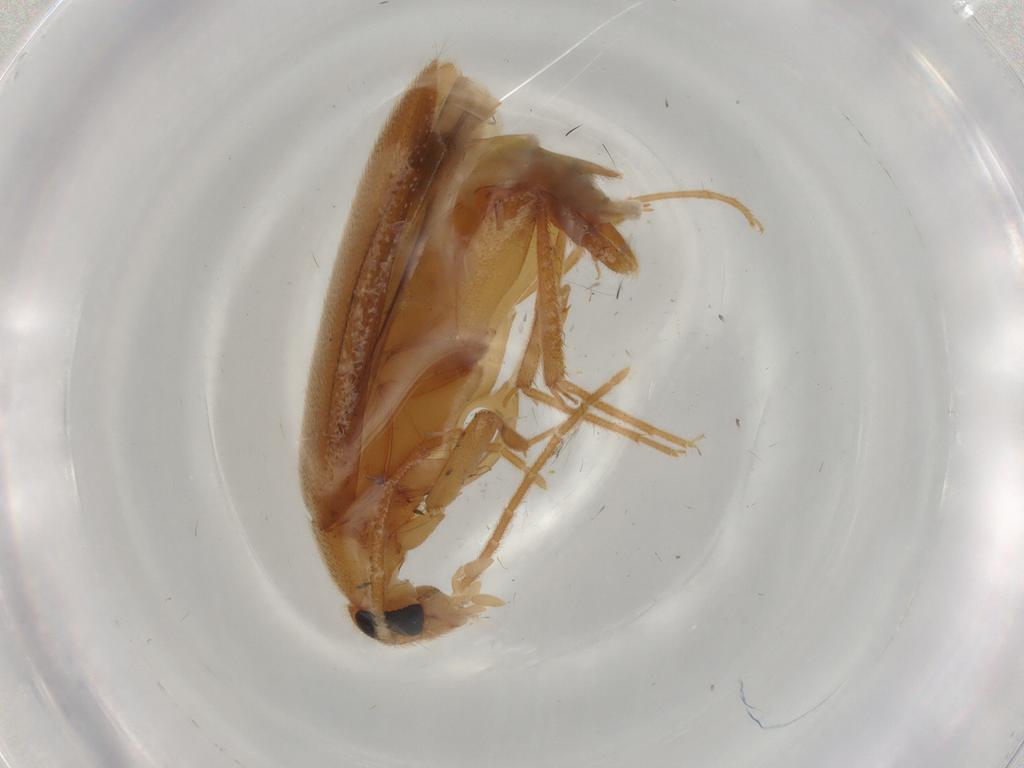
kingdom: Animalia
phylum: Arthropoda
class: Insecta
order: Coleoptera
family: Scraptiidae
